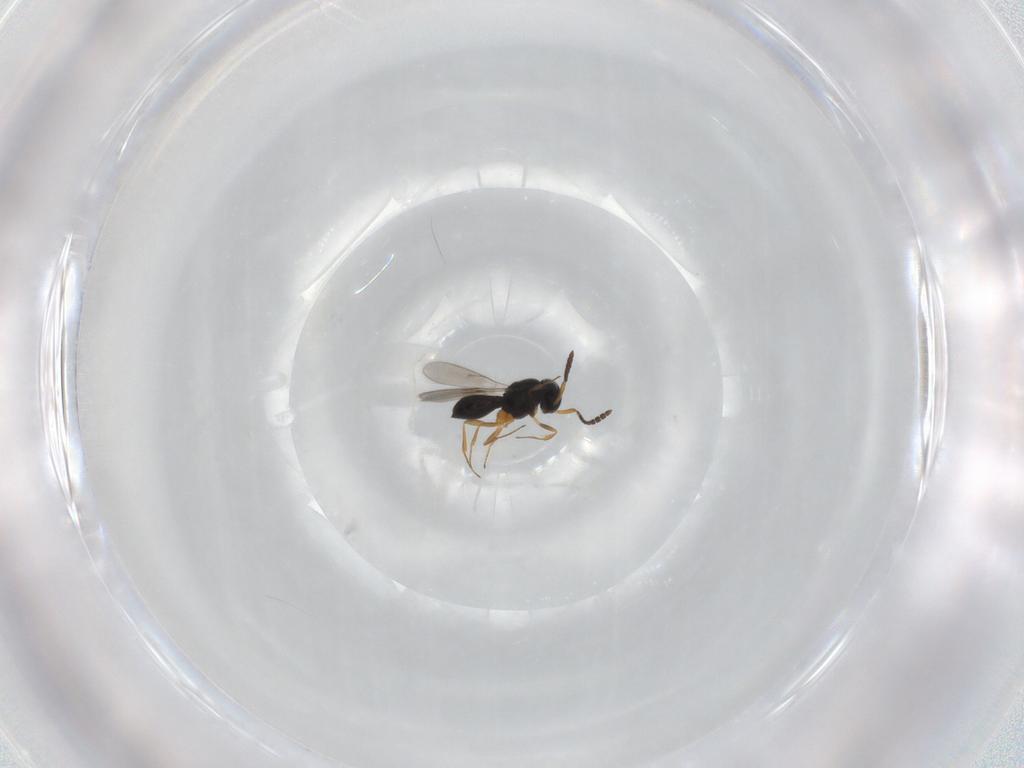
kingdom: Animalia
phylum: Arthropoda
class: Insecta
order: Hymenoptera
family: Scelionidae
